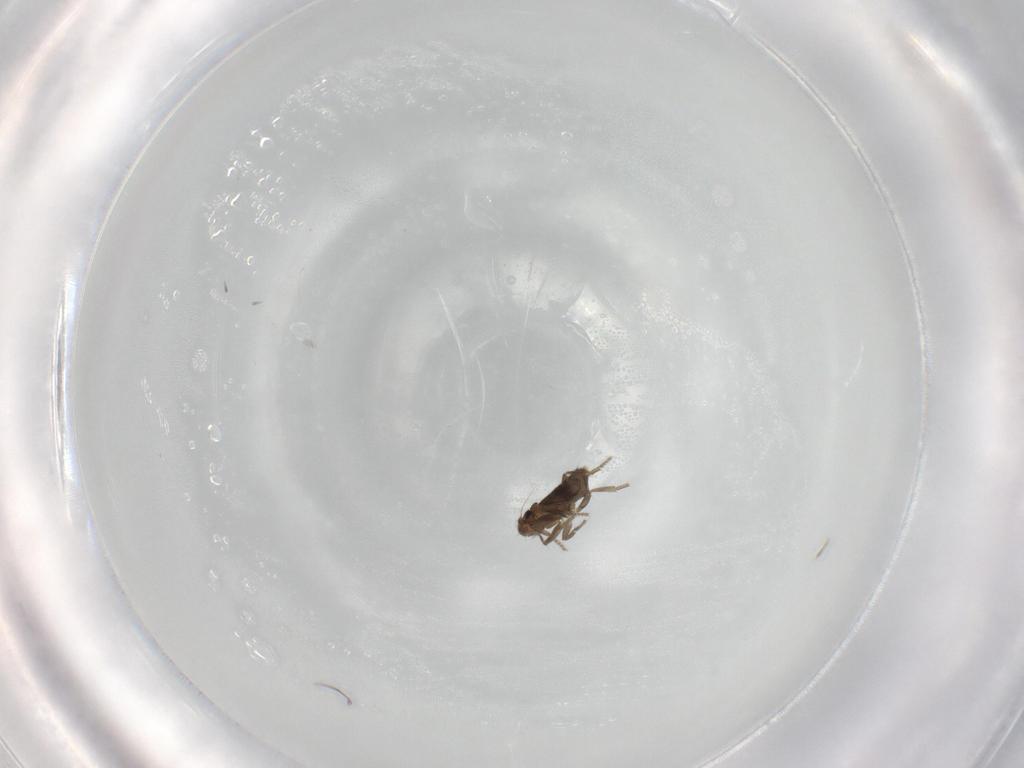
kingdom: Animalia
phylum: Arthropoda
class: Insecta
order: Diptera
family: Phoridae
